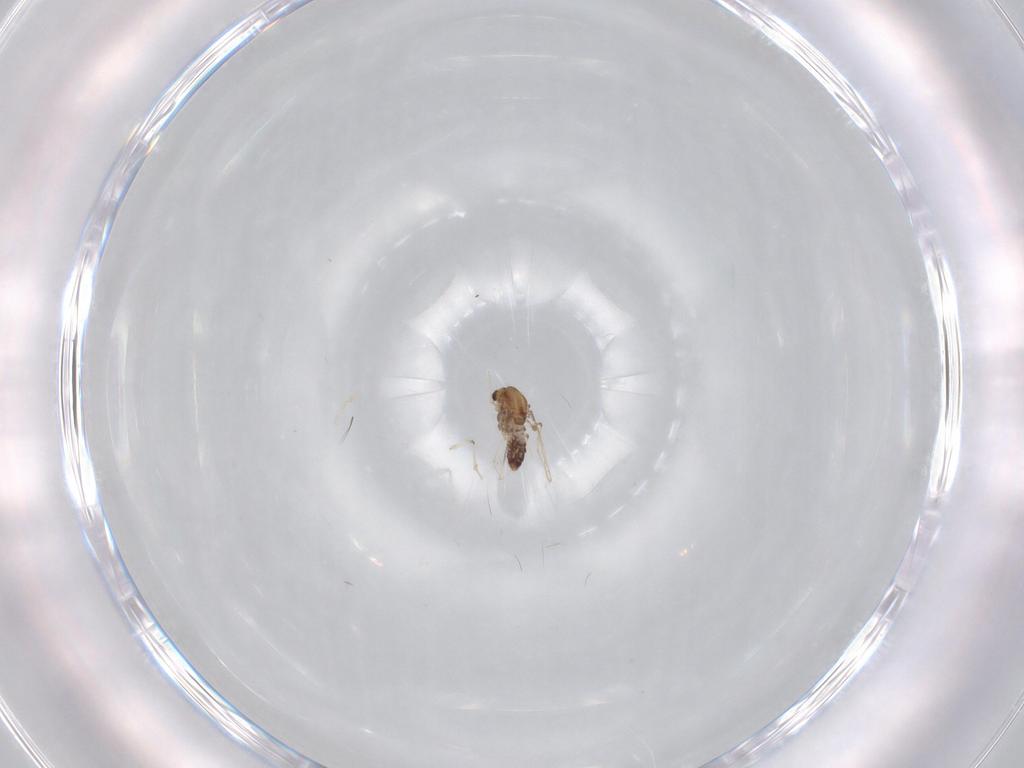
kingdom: Animalia
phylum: Arthropoda
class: Insecta
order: Diptera
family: Chironomidae
